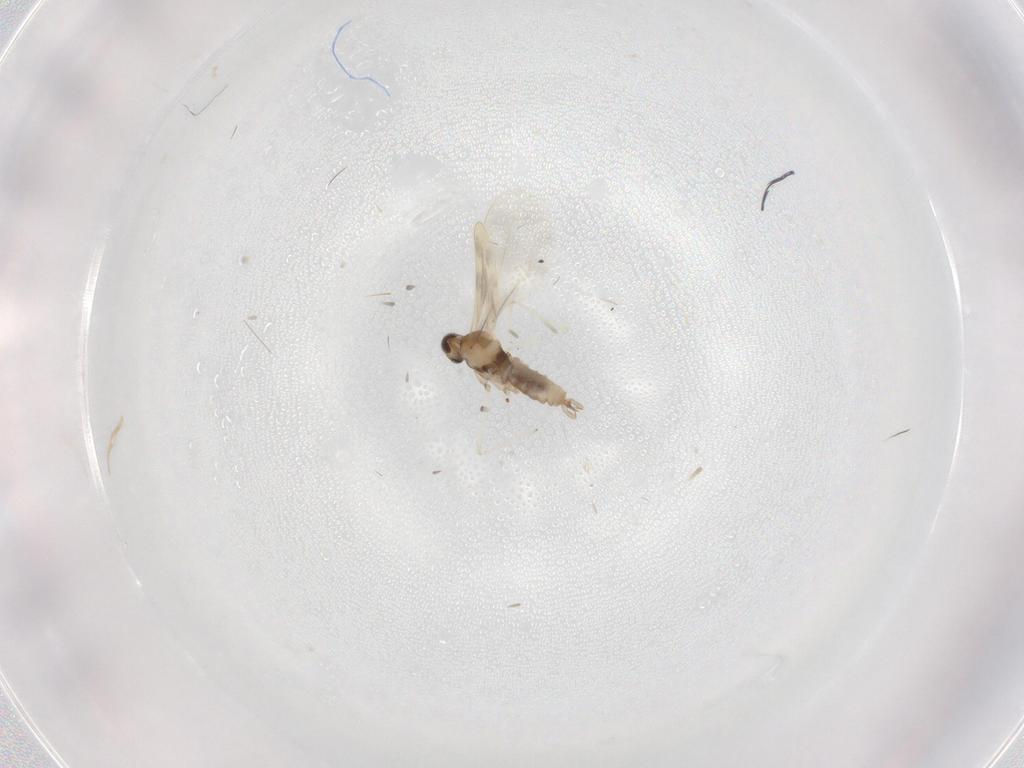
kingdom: Animalia
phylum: Arthropoda
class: Insecta
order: Diptera
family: Cecidomyiidae
